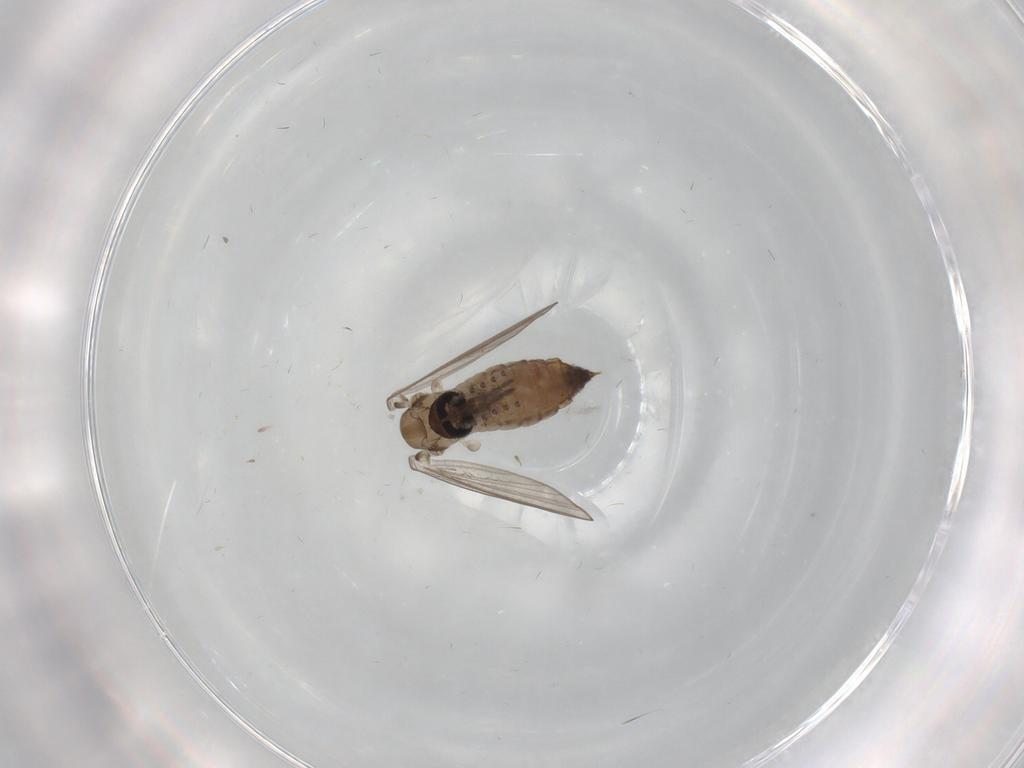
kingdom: Animalia
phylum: Arthropoda
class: Insecta
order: Diptera
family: Psychodidae
